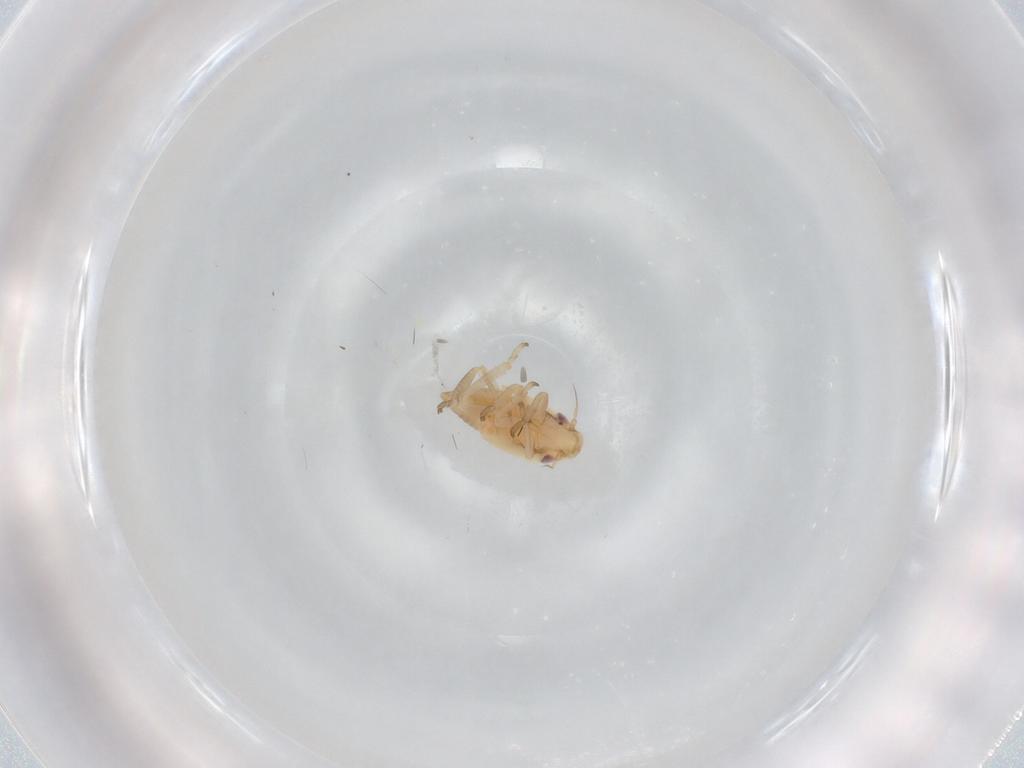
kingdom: Animalia
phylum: Arthropoda
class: Insecta
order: Hemiptera
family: Cicadellidae
